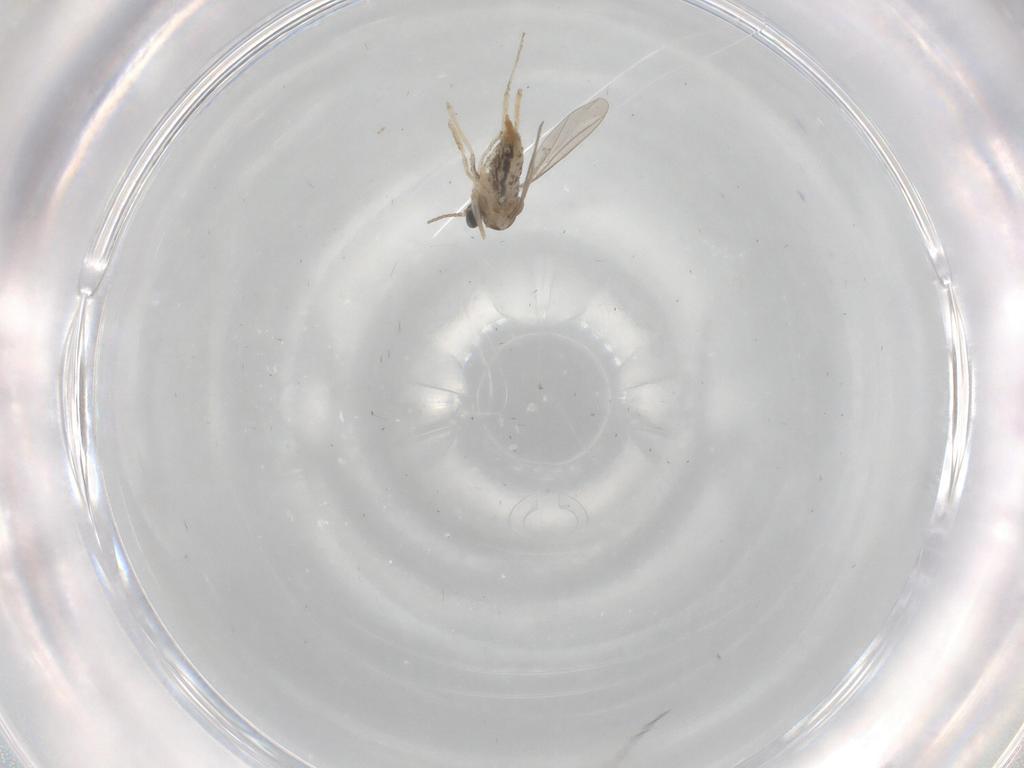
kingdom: Animalia
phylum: Arthropoda
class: Insecta
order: Diptera
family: Cecidomyiidae
